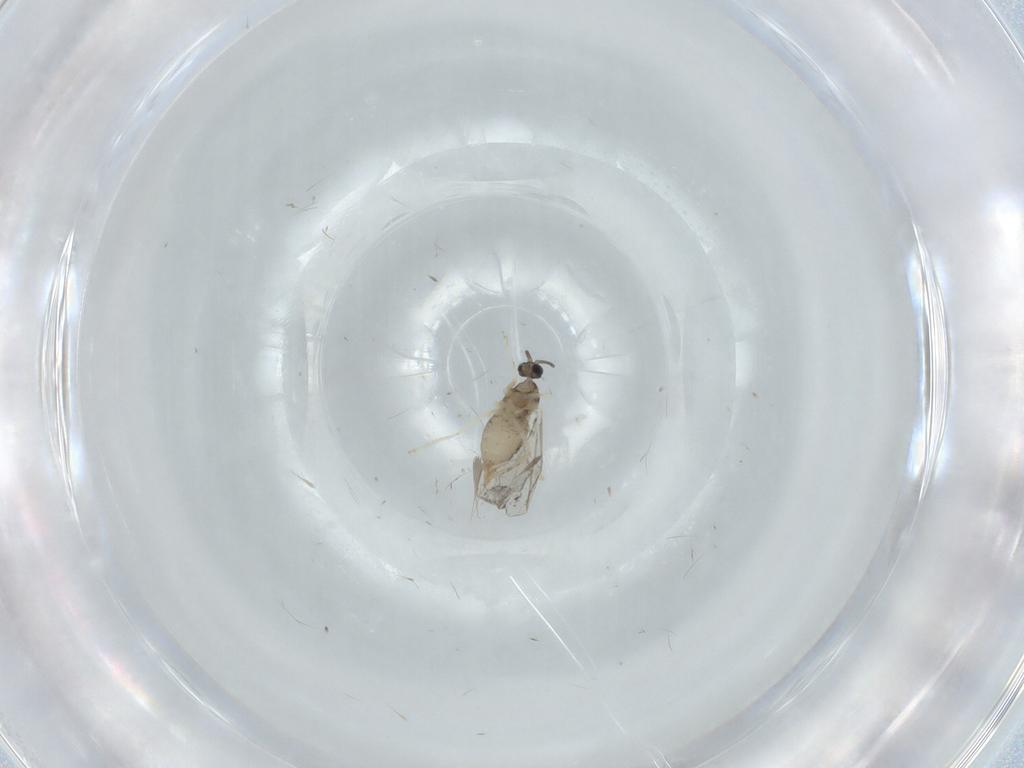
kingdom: Animalia
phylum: Arthropoda
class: Insecta
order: Diptera
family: Cecidomyiidae
